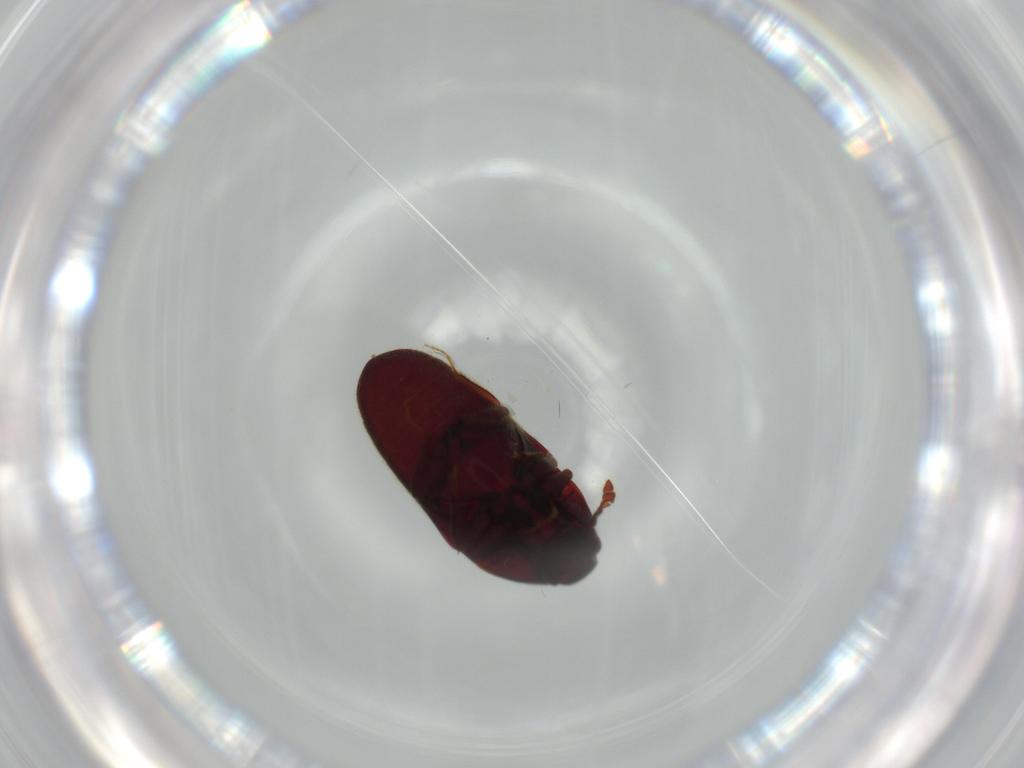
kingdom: Animalia
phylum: Arthropoda
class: Insecta
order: Coleoptera
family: Throscidae
